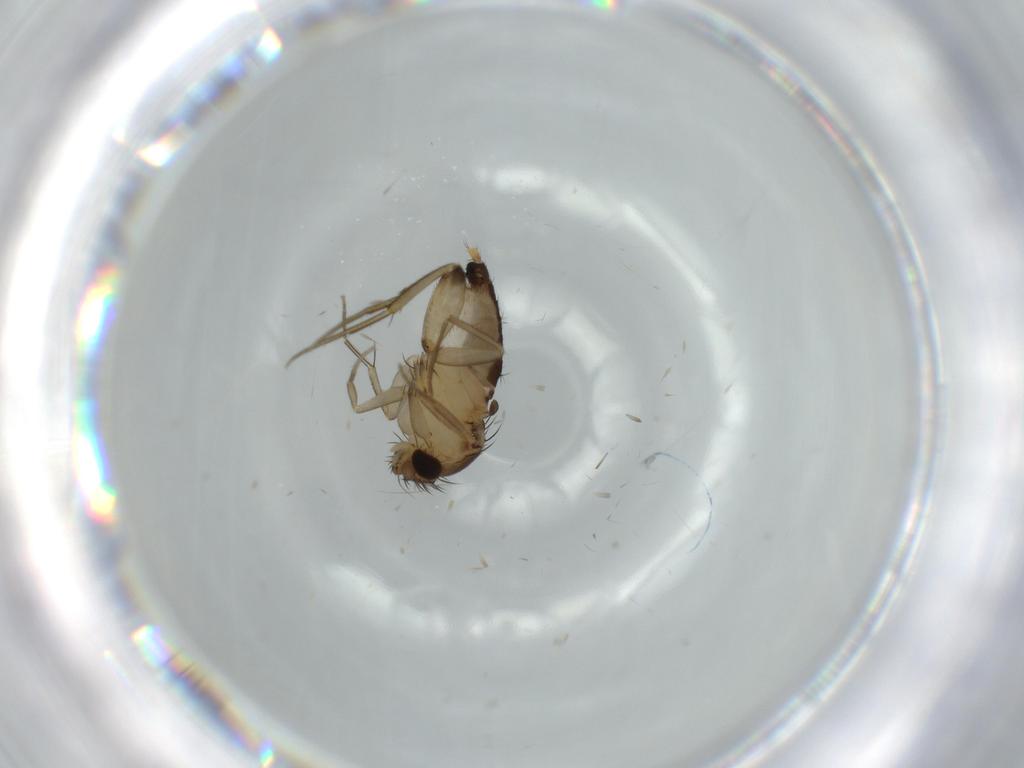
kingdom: Animalia
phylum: Arthropoda
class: Insecta
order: Diptera
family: Phoridae
